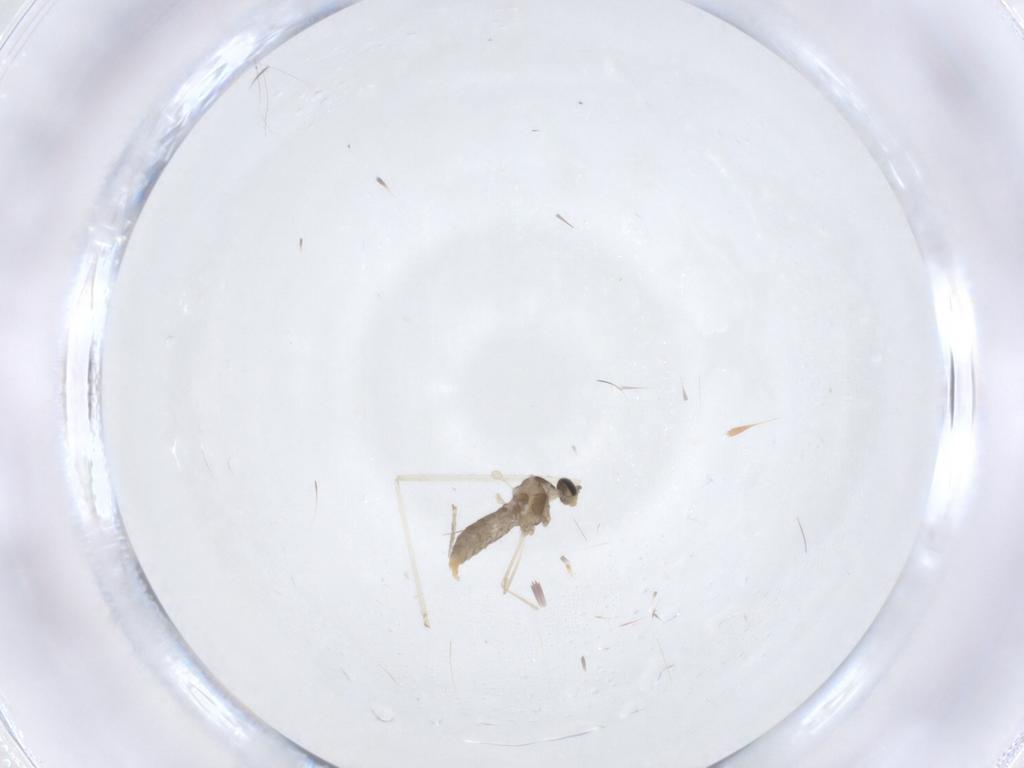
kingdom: Animalia
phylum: Arthropoda
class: Insecta
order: Diptera
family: Cecidomyiidae
